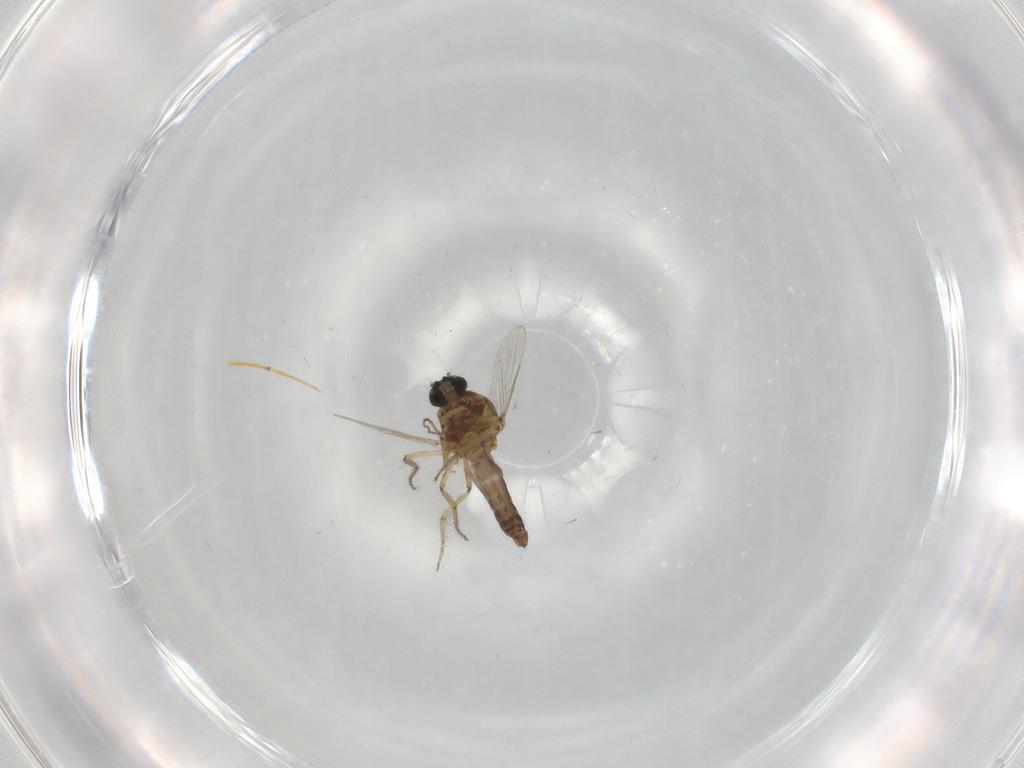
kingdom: Animalia
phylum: Arthropoda
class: Insecta
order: Diptera
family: Ceratopogonidae
